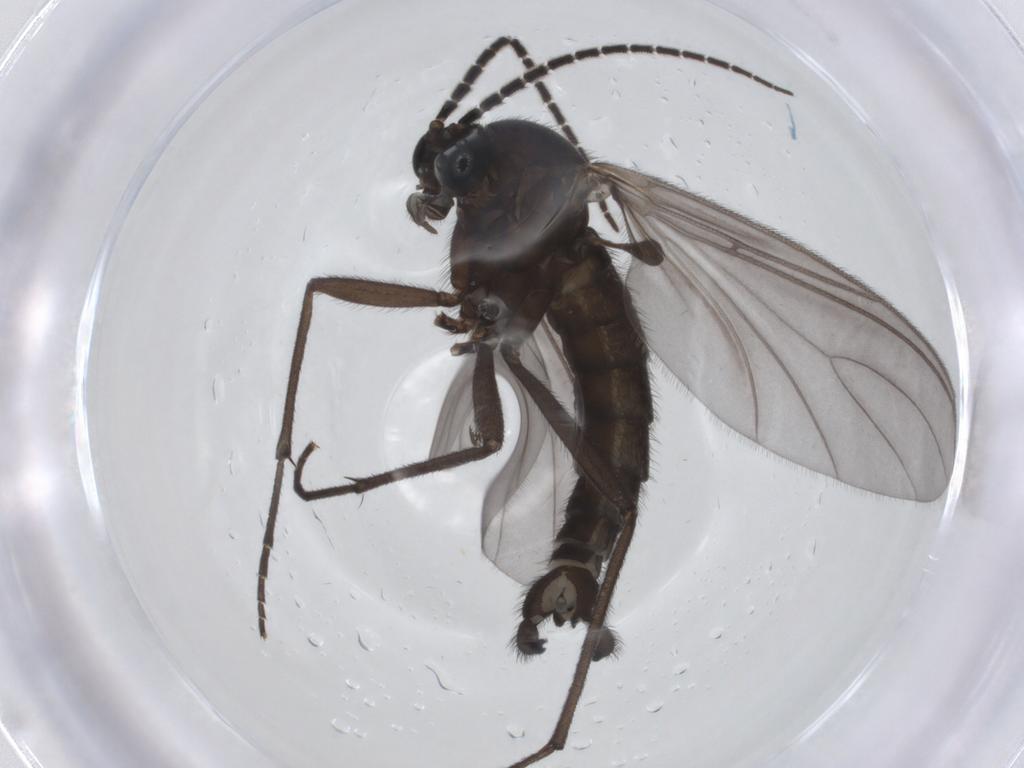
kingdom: Animalia
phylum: Arthropoda
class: Insecta
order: Diptera
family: Sciaridae
